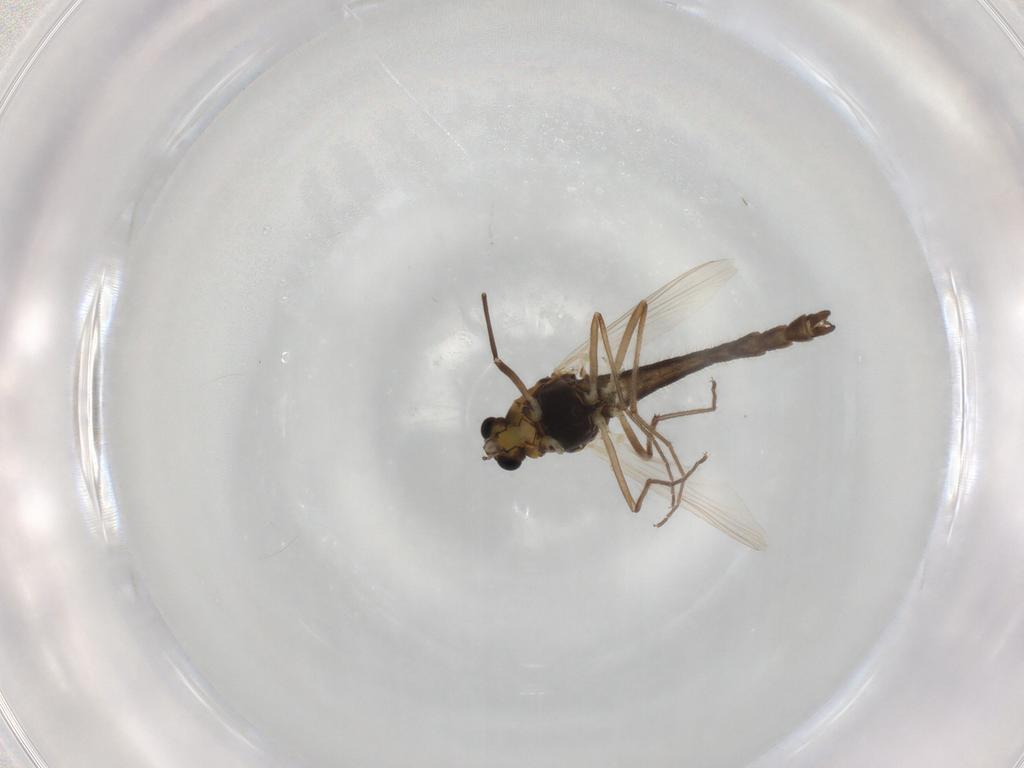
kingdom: Animalia
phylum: Arthropoda
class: Insecta
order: Diptera
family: Chironomidae
